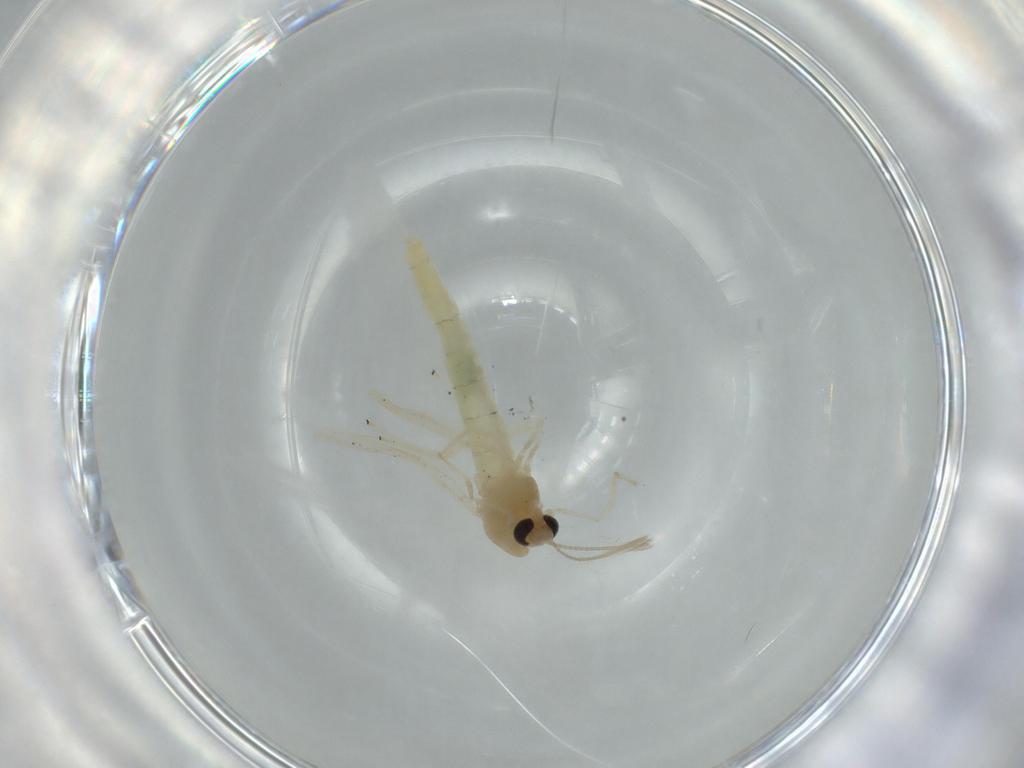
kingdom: Animalia
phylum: Arthropoda
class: Insecta
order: Diptera
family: Chironomidae
